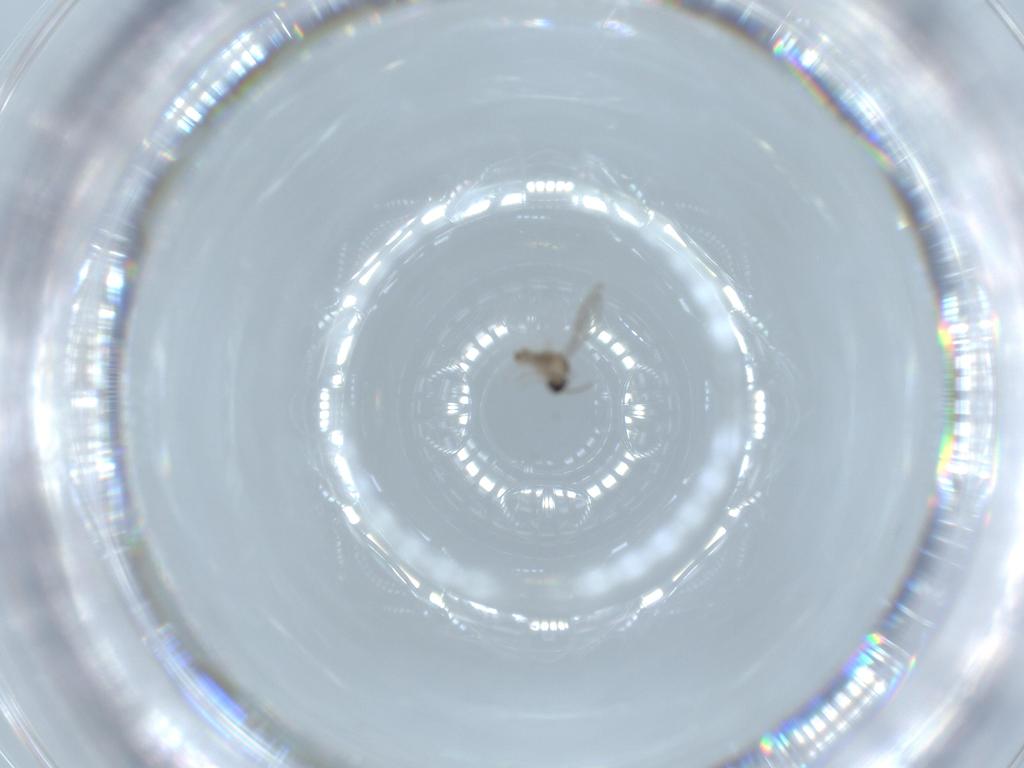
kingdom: Animalia
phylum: Arthropoda
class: Insecta
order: Diptera
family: Cecidomyiidae
